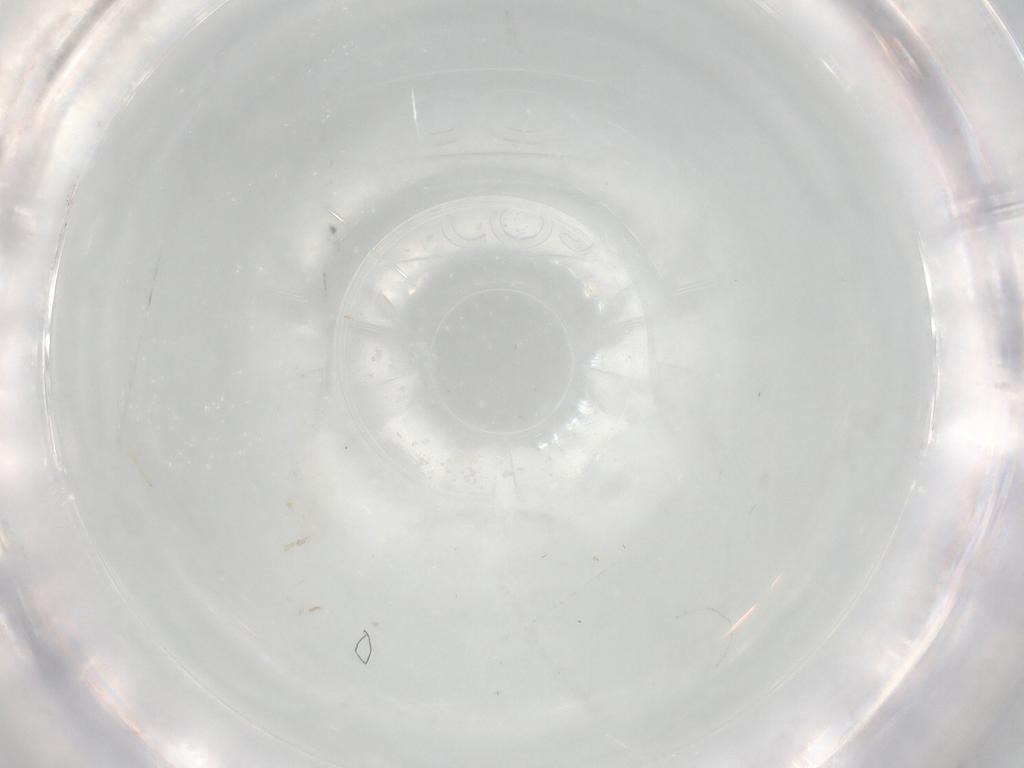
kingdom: Animalia
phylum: Arthropoda
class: Insecta
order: Diptera
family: Cecidomyiidae
